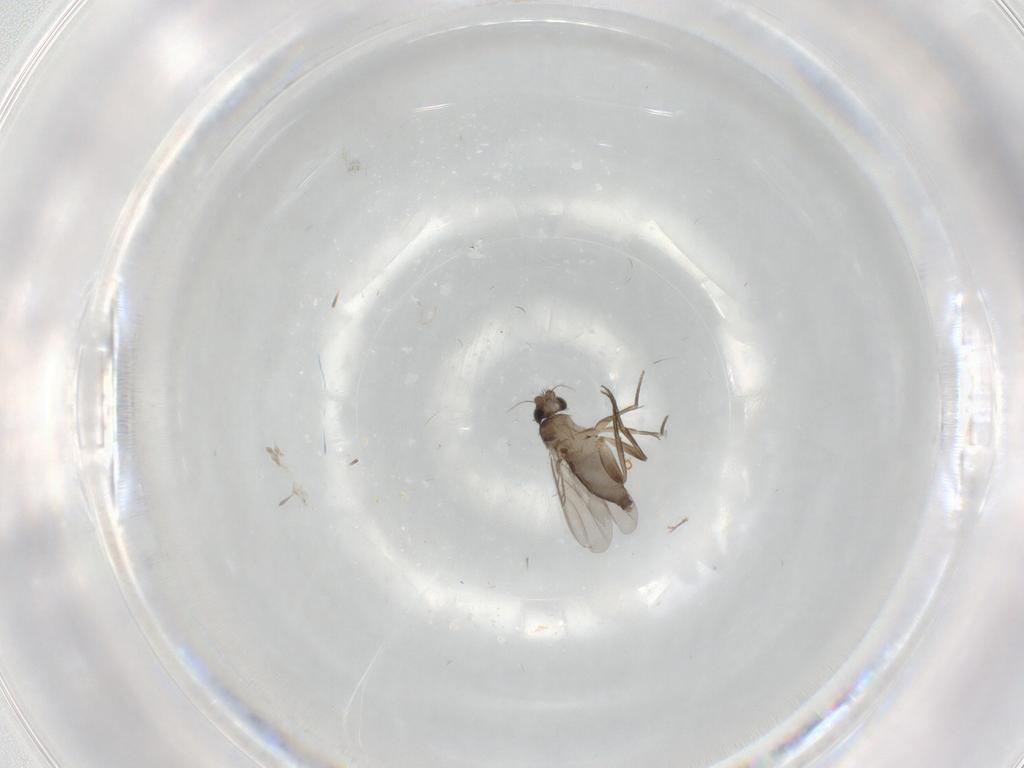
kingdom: Animalia
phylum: Arthropoda
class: Insecta
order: Diptera
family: Phoridae
